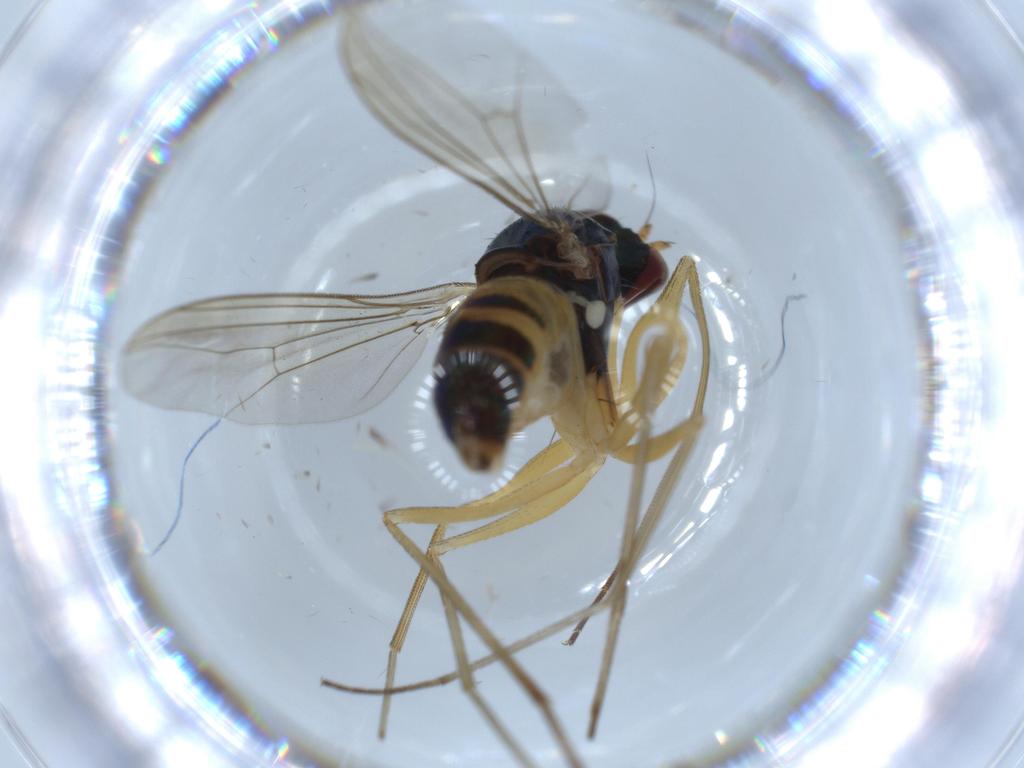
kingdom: Animalia
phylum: Arthropoda
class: Insecta
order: Diptera
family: Dolichopodidae
